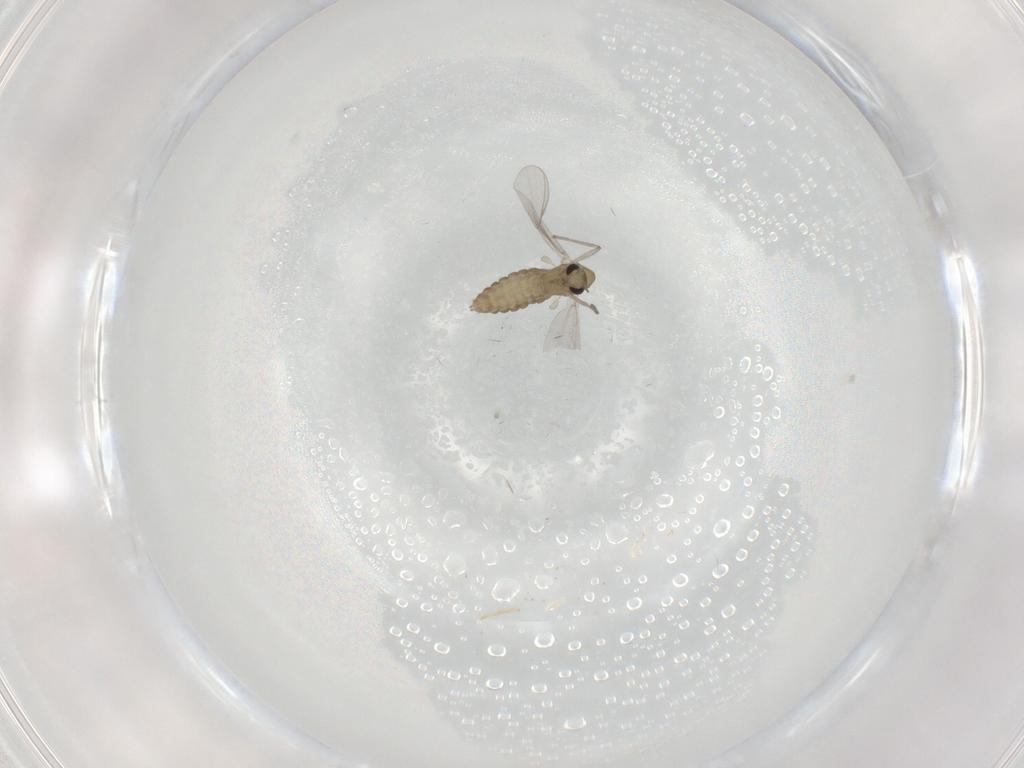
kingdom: Animalia
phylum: Arthropoda
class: Insecta
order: Diptera
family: Chironomidae
